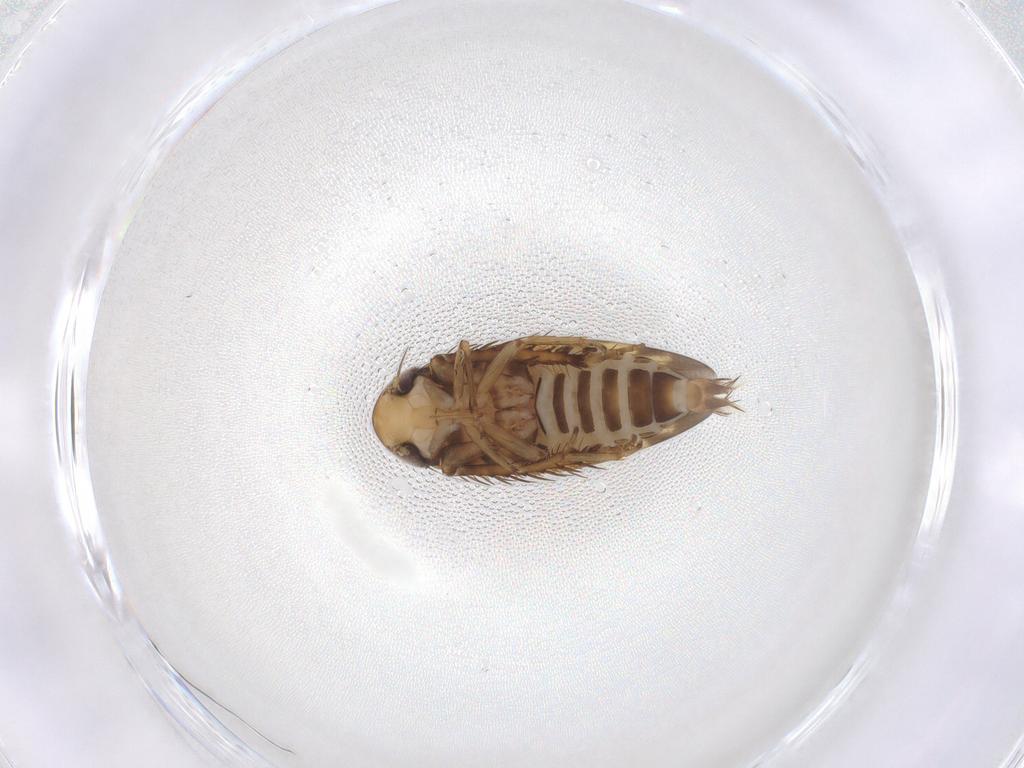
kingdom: Animalia
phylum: Arthropoda
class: Insecta
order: Hemiptera
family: Cicadellidae
